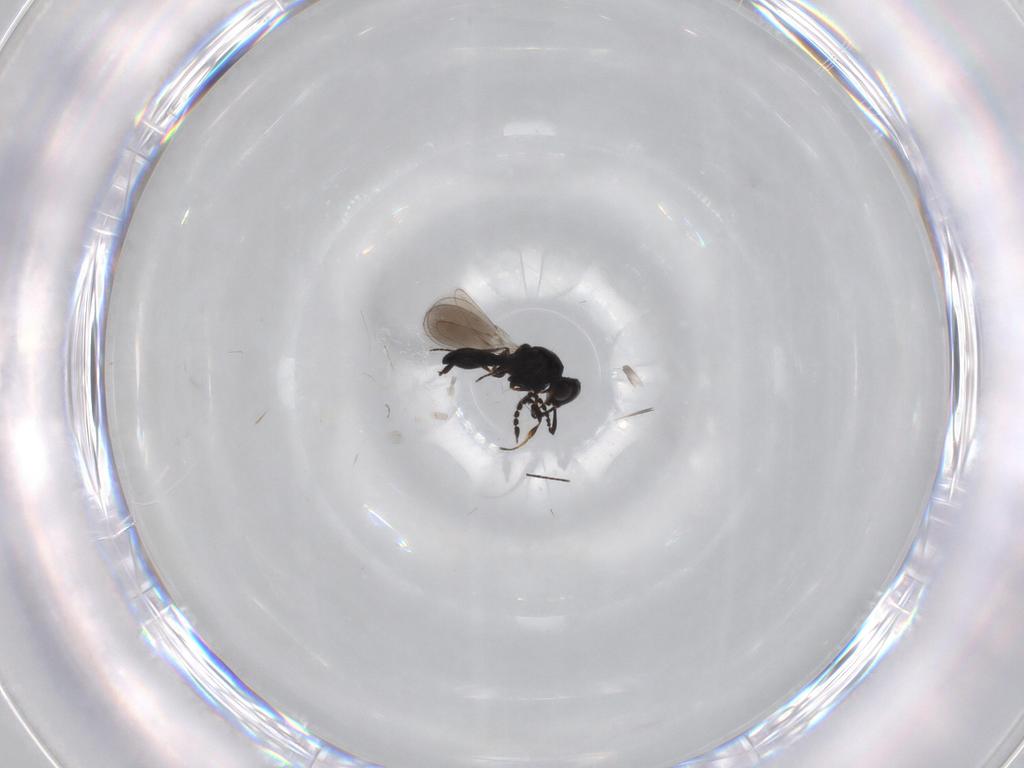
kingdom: Animalia
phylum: Arthropoda
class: Insecta
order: Hymenoptera
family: Platygastridae
